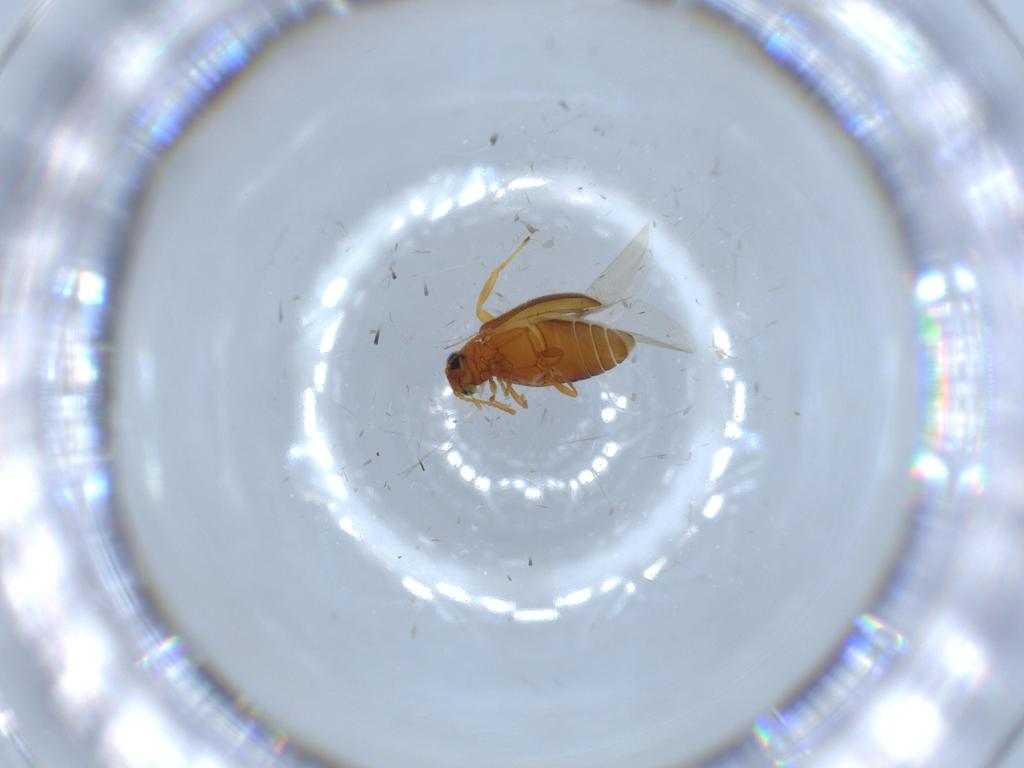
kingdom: Animalia
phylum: Arthropoda
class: Insecta
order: Coleoptera
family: Aderidae
